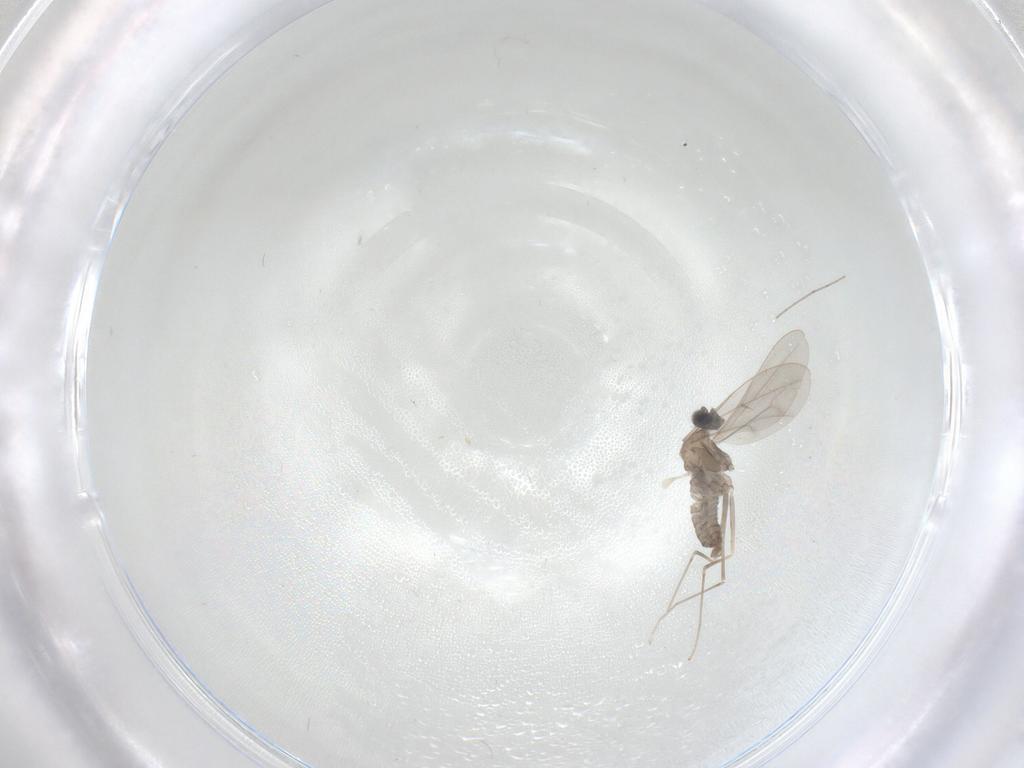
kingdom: Animalia
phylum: Arthropoda
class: Insecta
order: Diptera
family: Cecidomyiidae
